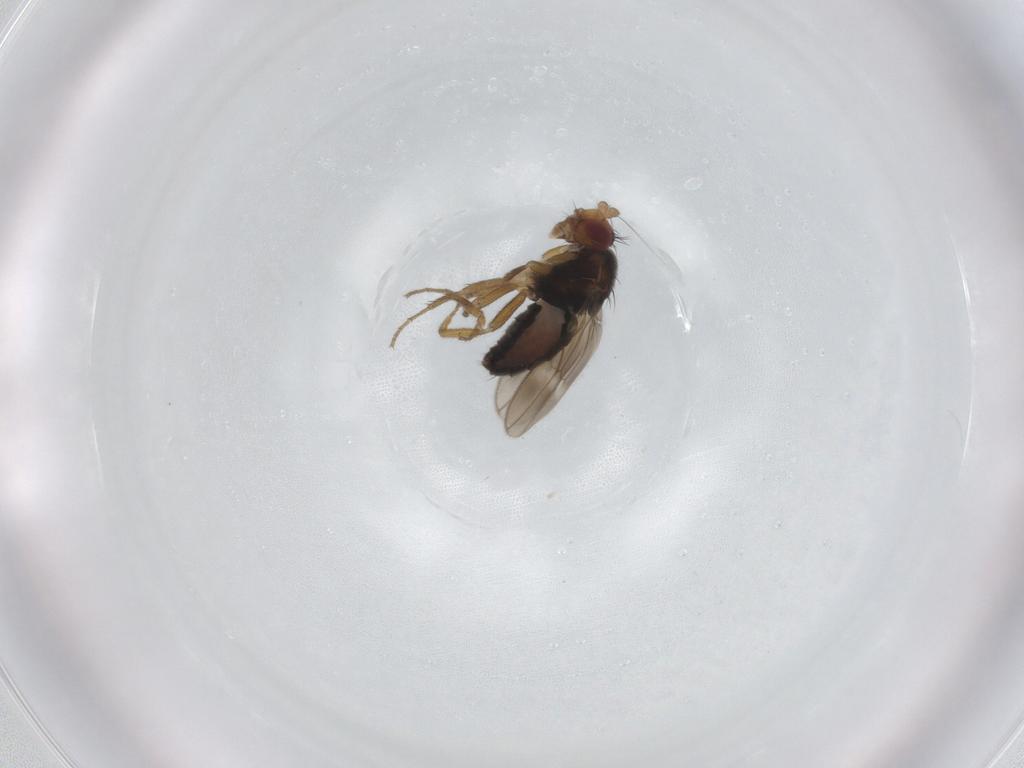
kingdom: Animalia
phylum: Arthropoda
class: Insecta
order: Diptera
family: Sphaeroceridae
